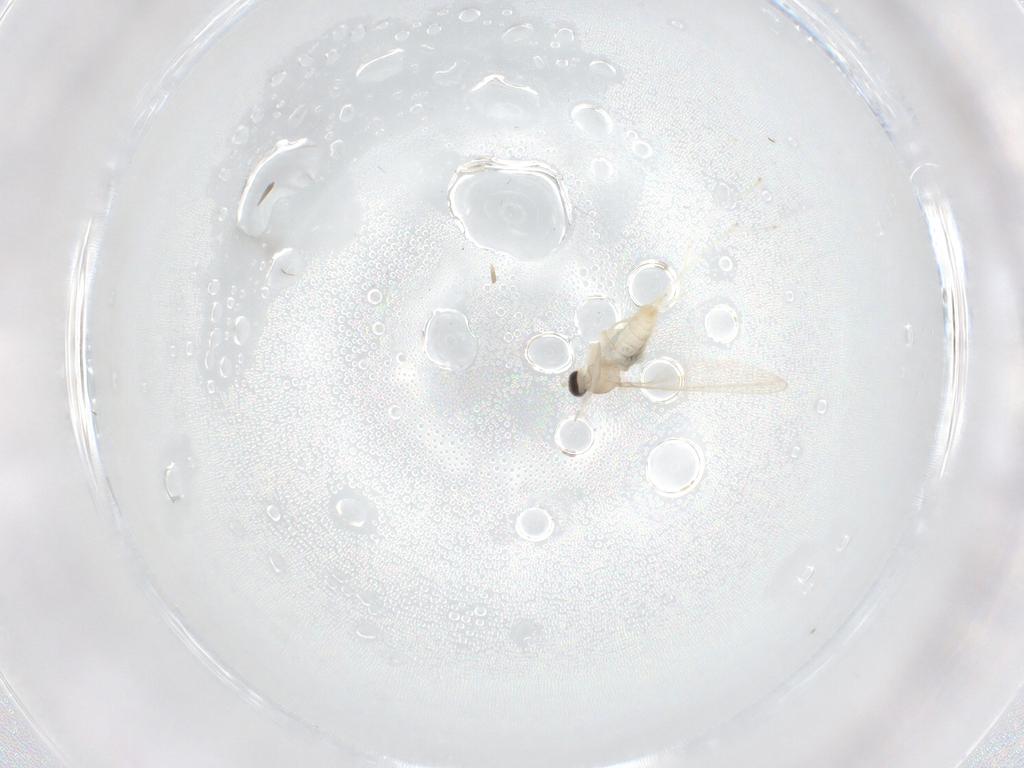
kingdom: Animalia
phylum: Arthropoda
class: Insecta
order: Diptera
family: Cecidomyiidae
